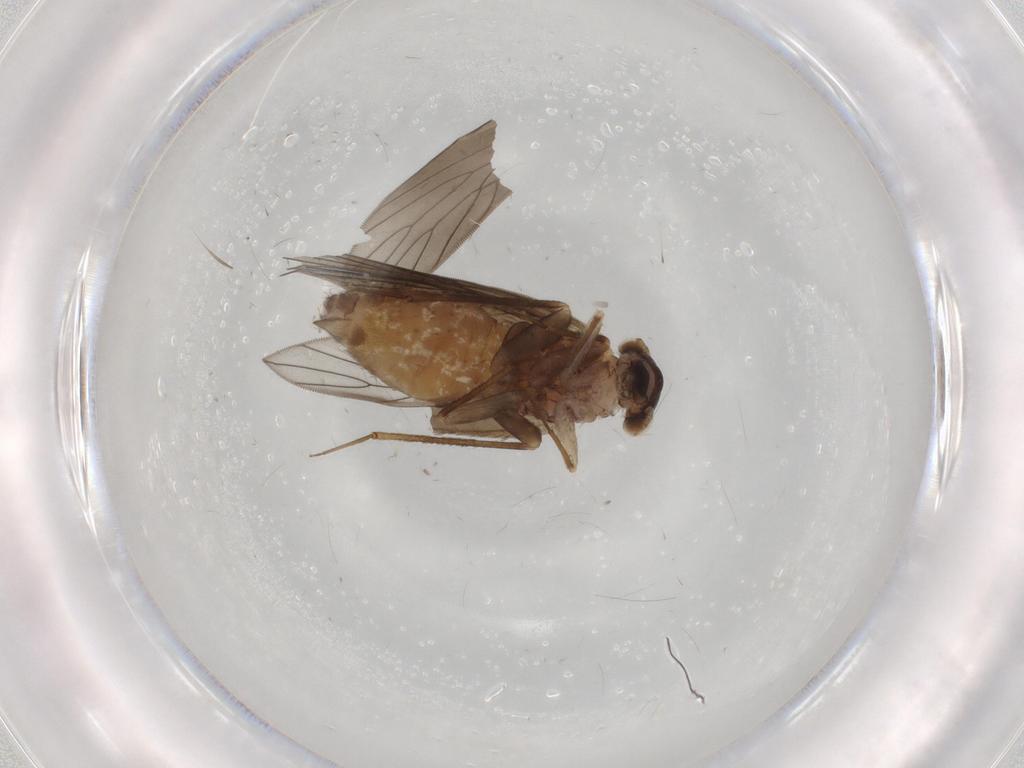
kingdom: Animalia
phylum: Arthropoda
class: Insecta
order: Psocodea
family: Lepidopsocidae
